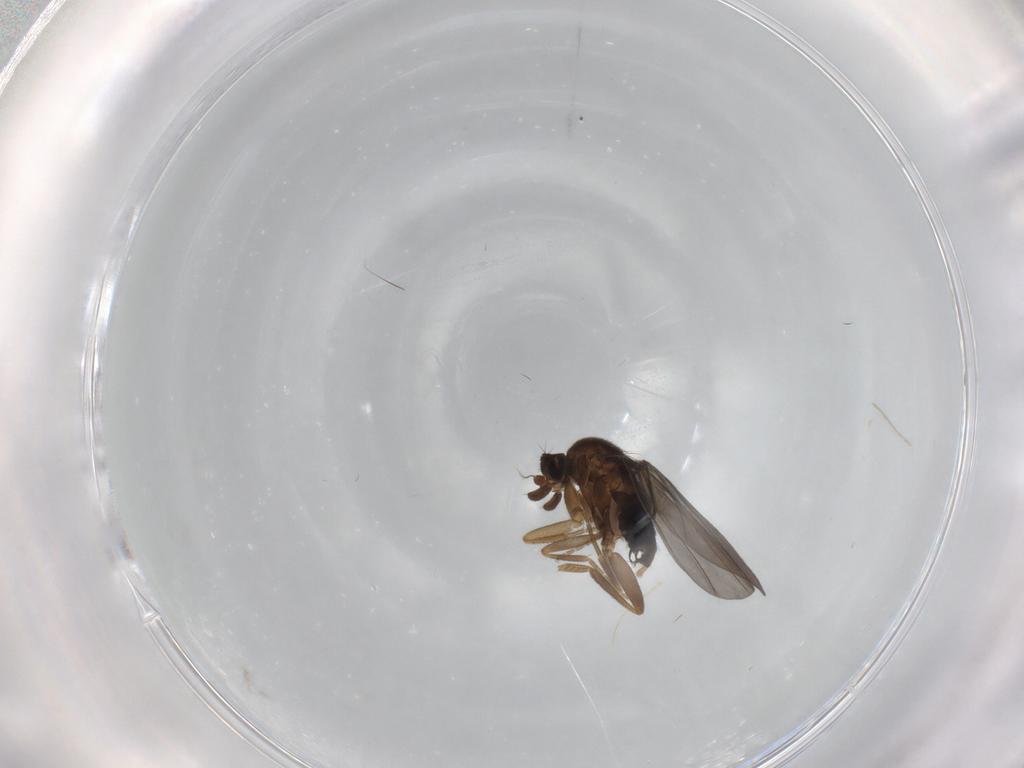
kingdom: Animalia
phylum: Arthropoda
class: Insecta
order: Diptera
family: Phoridae
